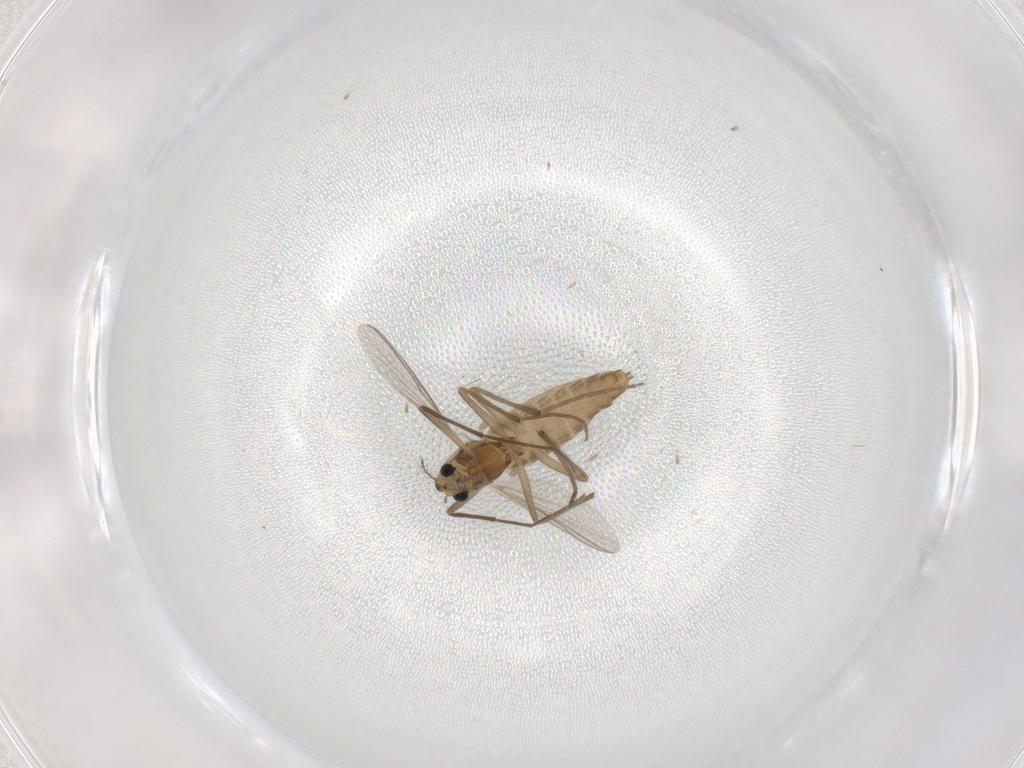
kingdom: Animalia
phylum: Arthropoda
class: Insecta
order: Diptera
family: Chironomidae
